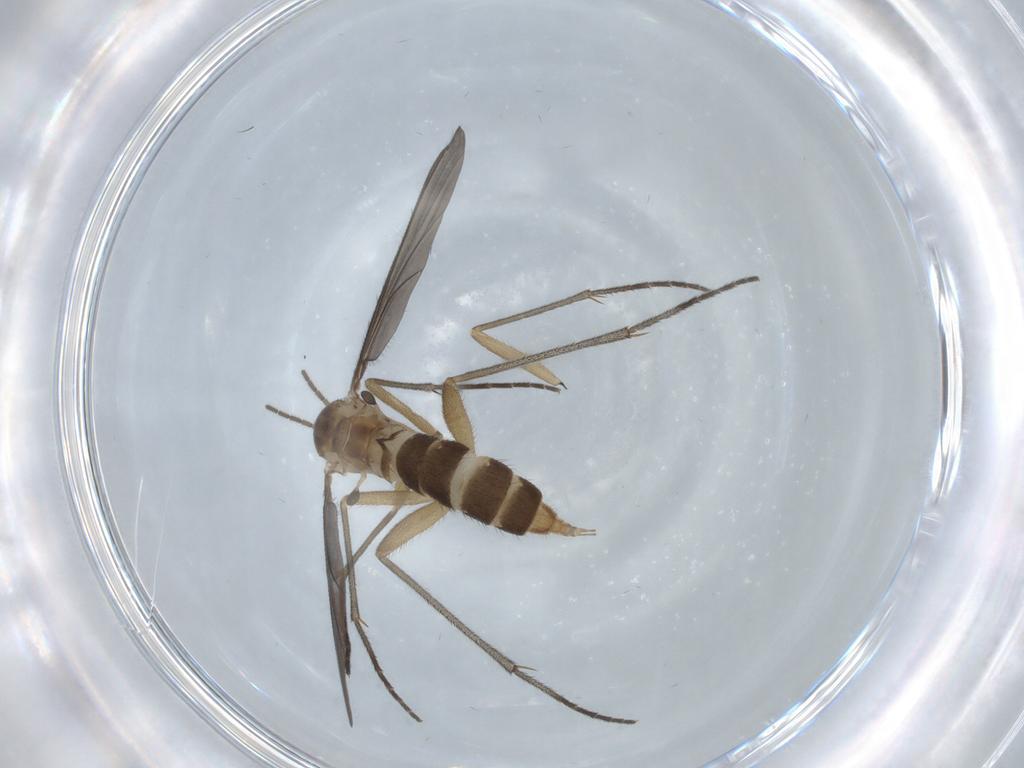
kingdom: Animalia
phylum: Arthropoda
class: Insecta
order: Diptera
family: Sciaridae
